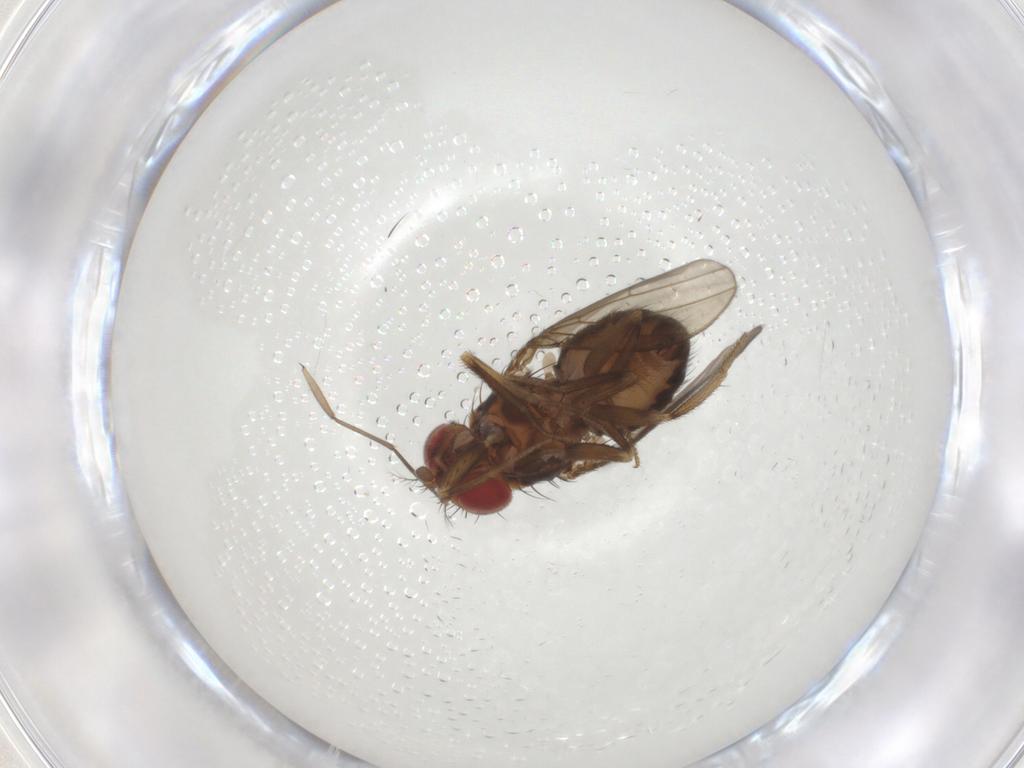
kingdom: Animalia
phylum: Arthropoda
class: Insecta
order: Diptera
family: Drosophilidae
